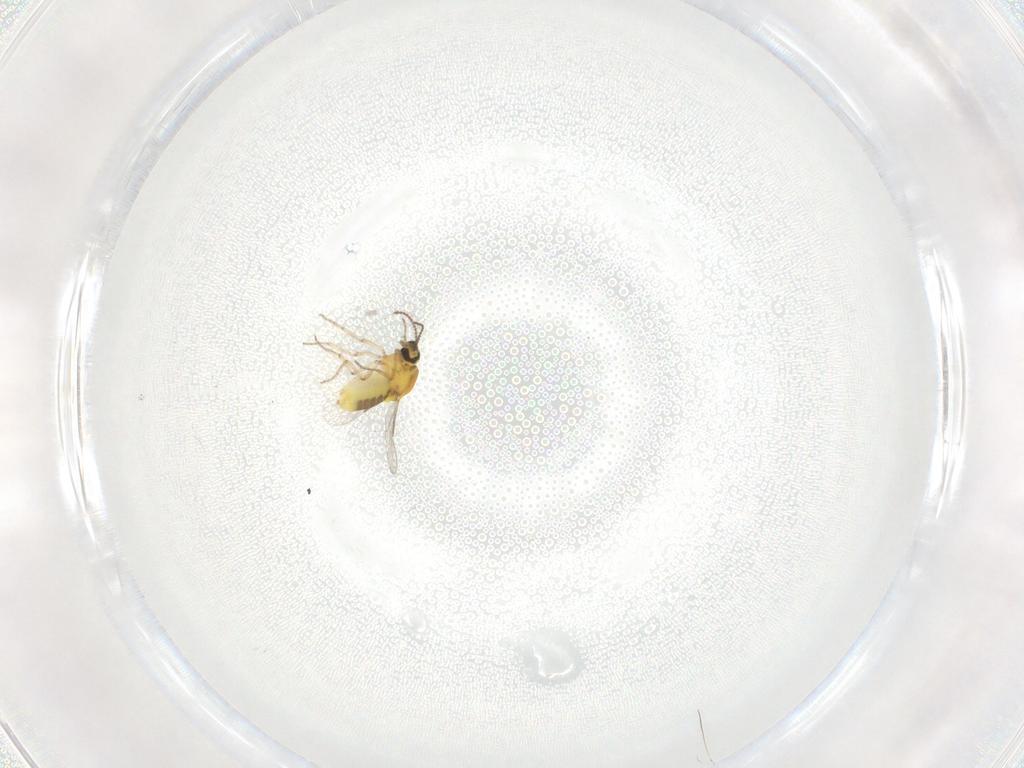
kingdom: Animalia
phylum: Arthropoda
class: Insecta
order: Diptera
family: Ceratopogonidae
